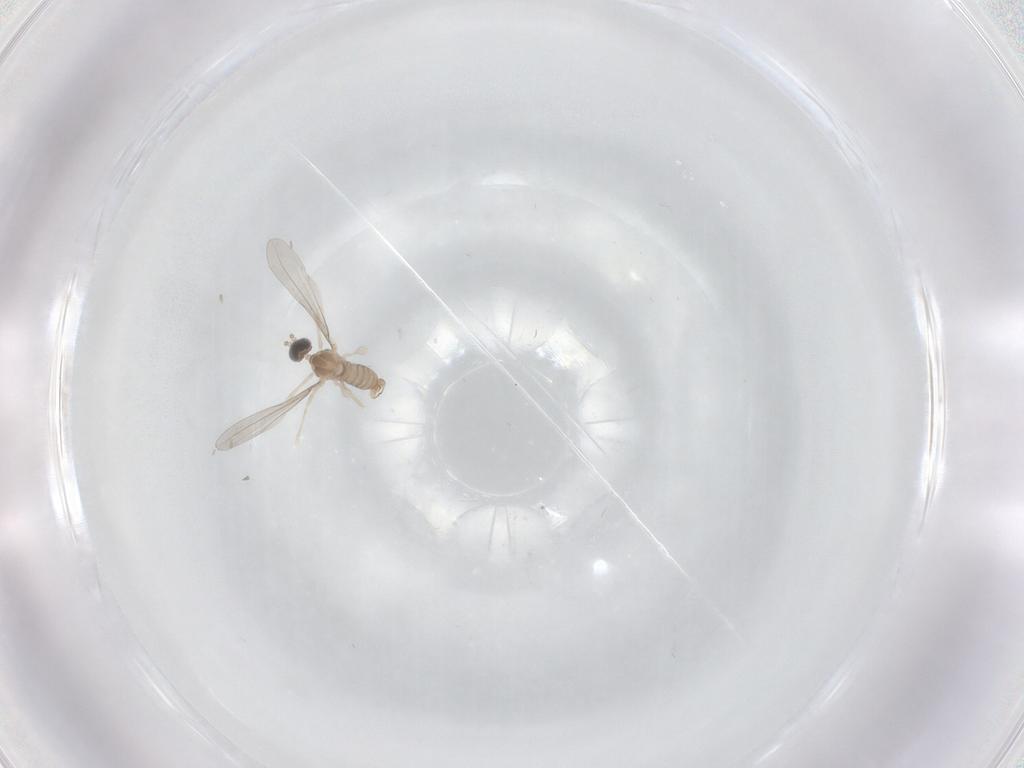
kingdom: Animalia
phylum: Arthropoda
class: Insecta
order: Diptera
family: Cecidomyiidae
